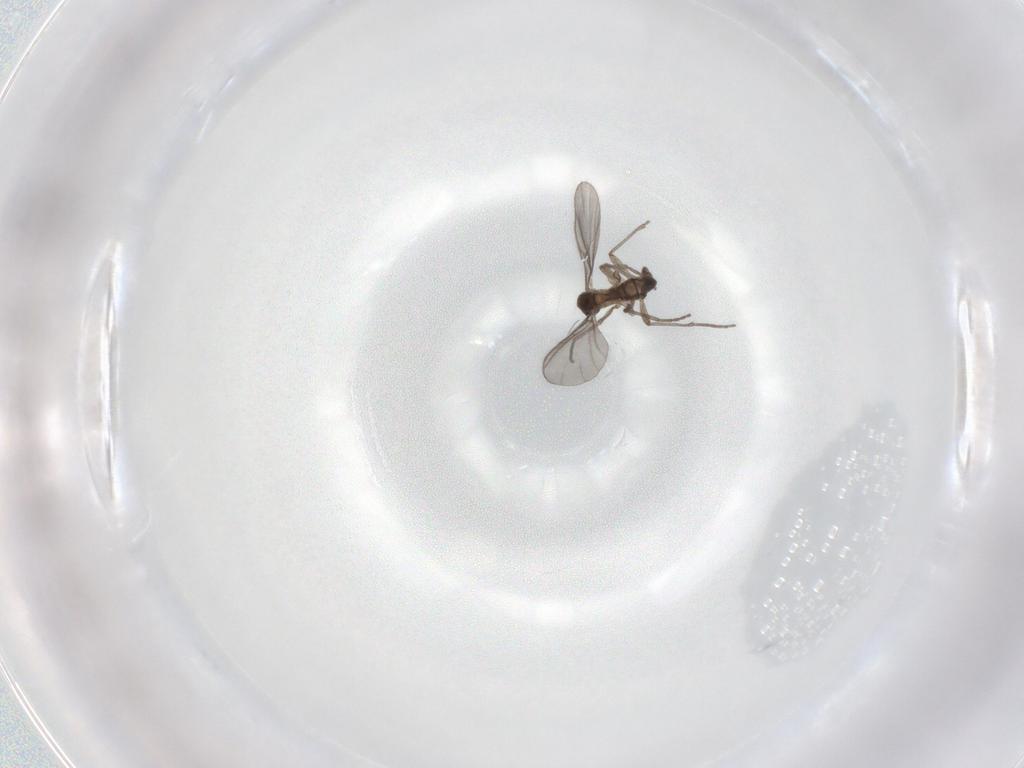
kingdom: Animalia
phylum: Arthropoda
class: Insecta
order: Diptera
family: Sciaridae
